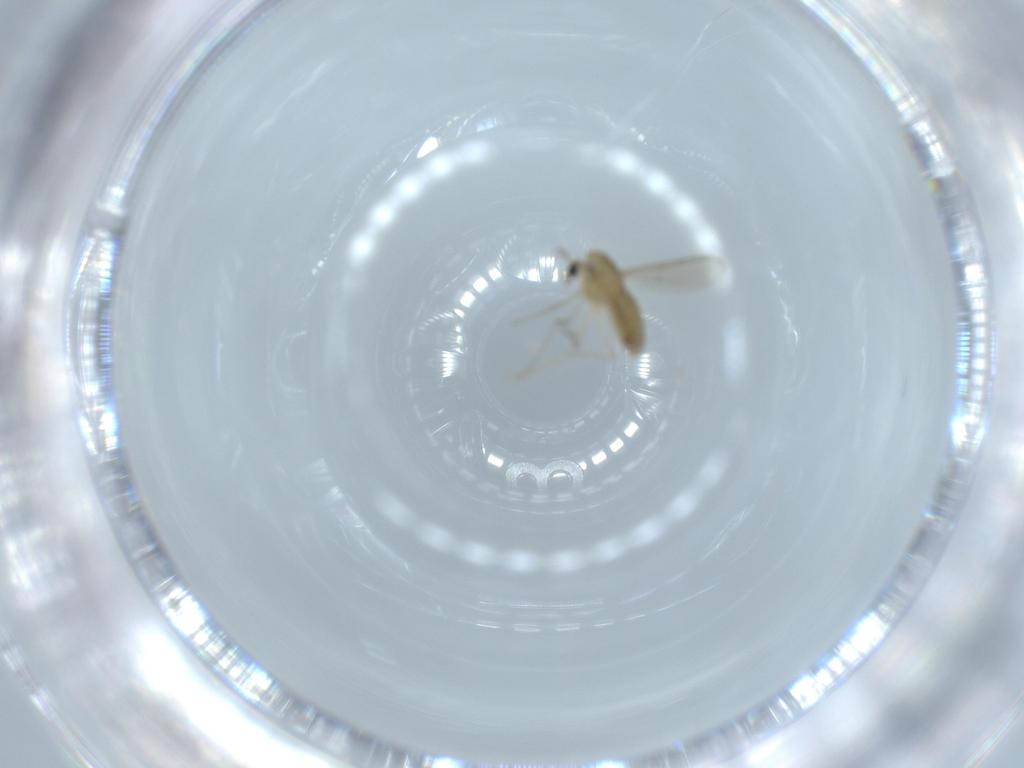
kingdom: Animalia
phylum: Arthropoda
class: Insecta
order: Diptera
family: Chironomidae
